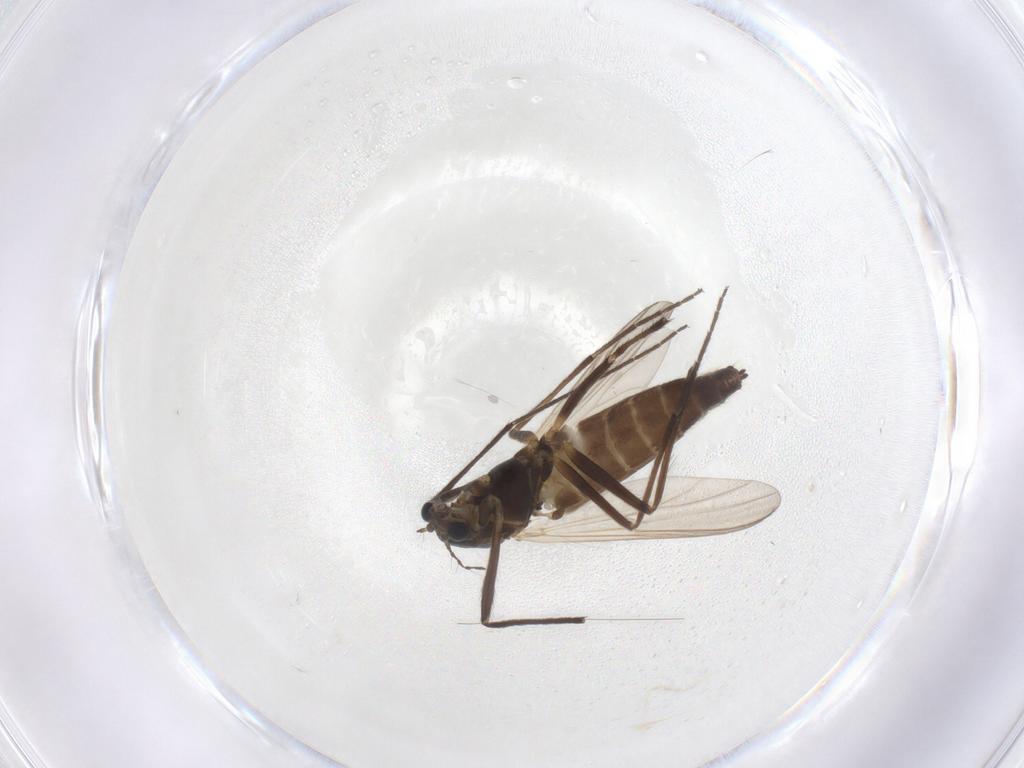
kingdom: Animalia
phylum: Arthropoda
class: Insecta
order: Diptera
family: Chironomidae
